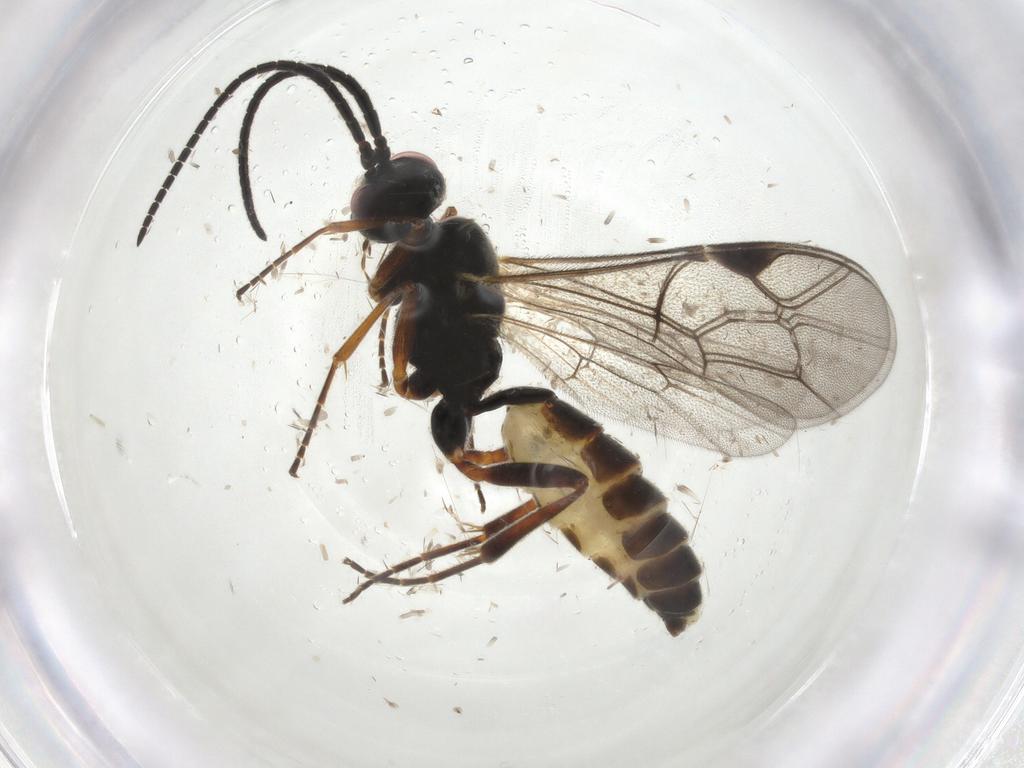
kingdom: Animalia
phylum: Arthropoda
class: Insecta
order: Hymenoptera
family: Ichneumonidae
